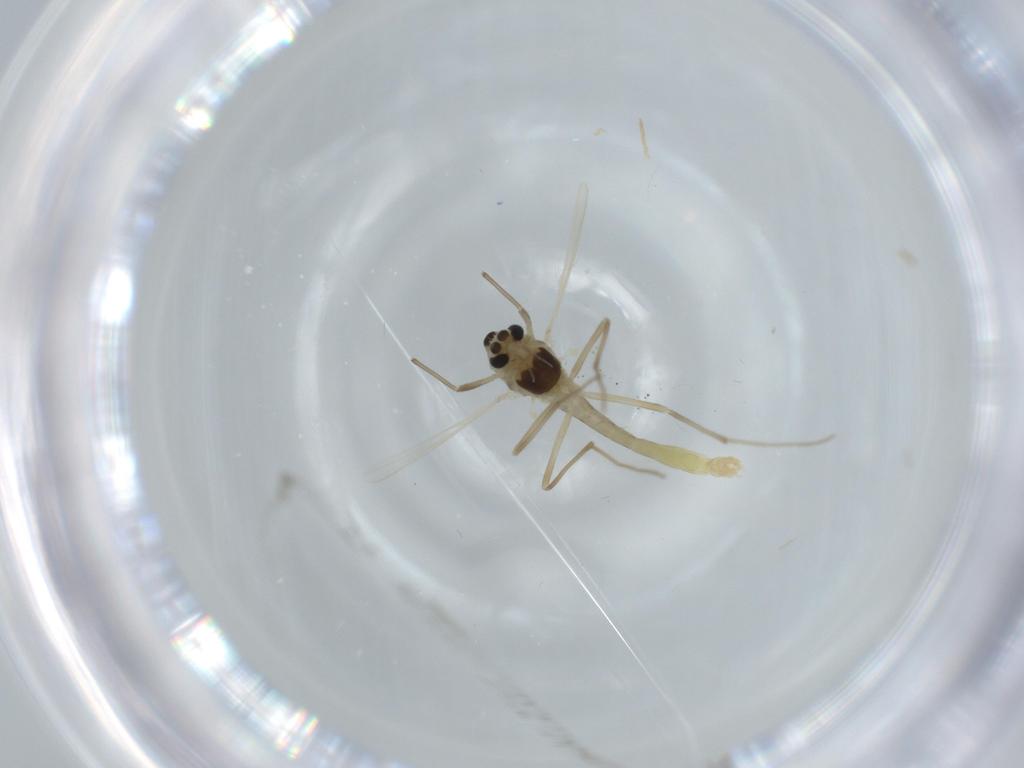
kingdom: Animalia
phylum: Arthropoda
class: Insecta
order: Diptera
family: Chironomidae
